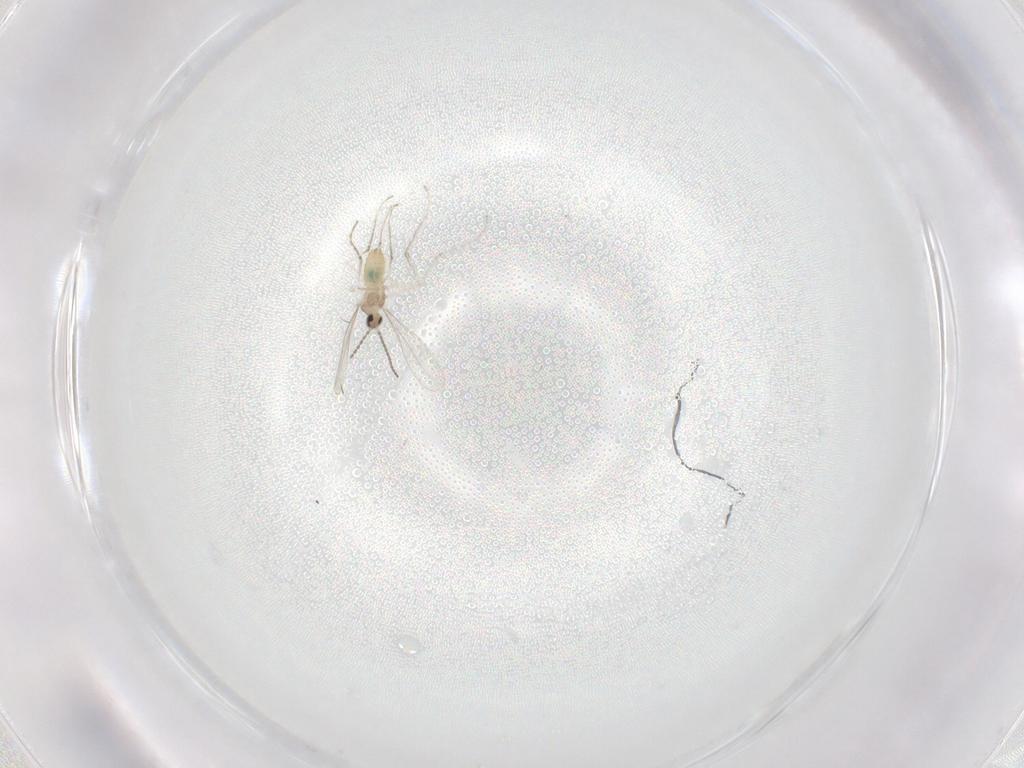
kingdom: Animalia
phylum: Arthropoda
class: Insecta
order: Diptera
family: Cecidomyiidae
